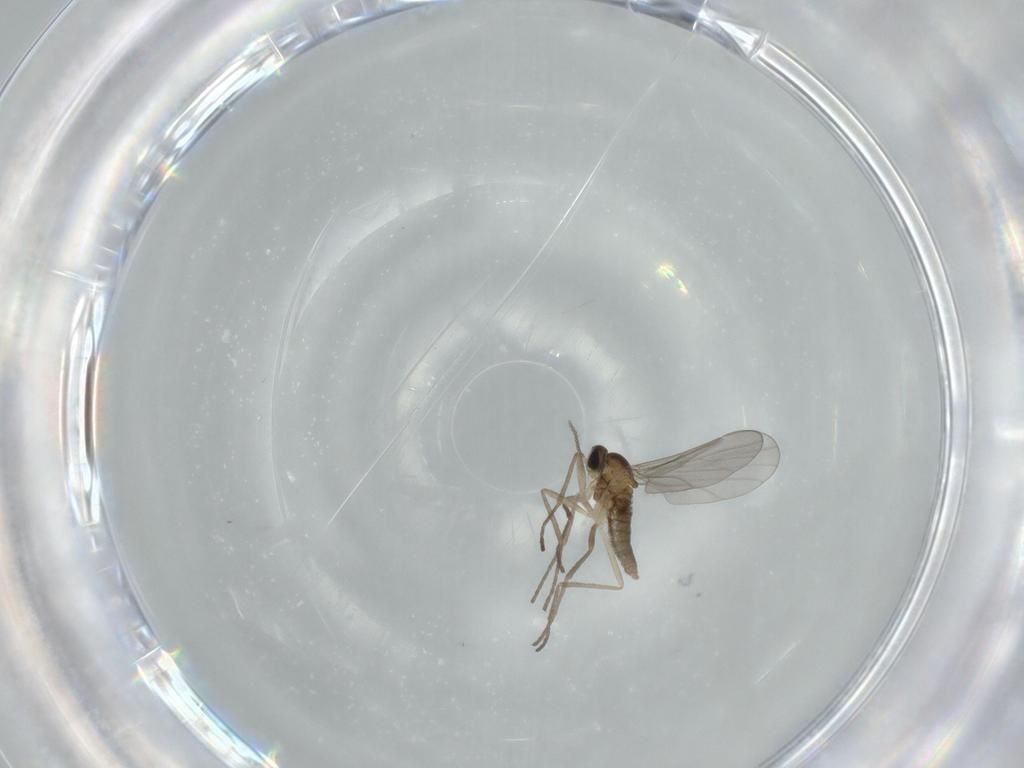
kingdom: Animalia
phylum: Arthropoda
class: Insecta
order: Diptera
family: Cecidomyiidae
